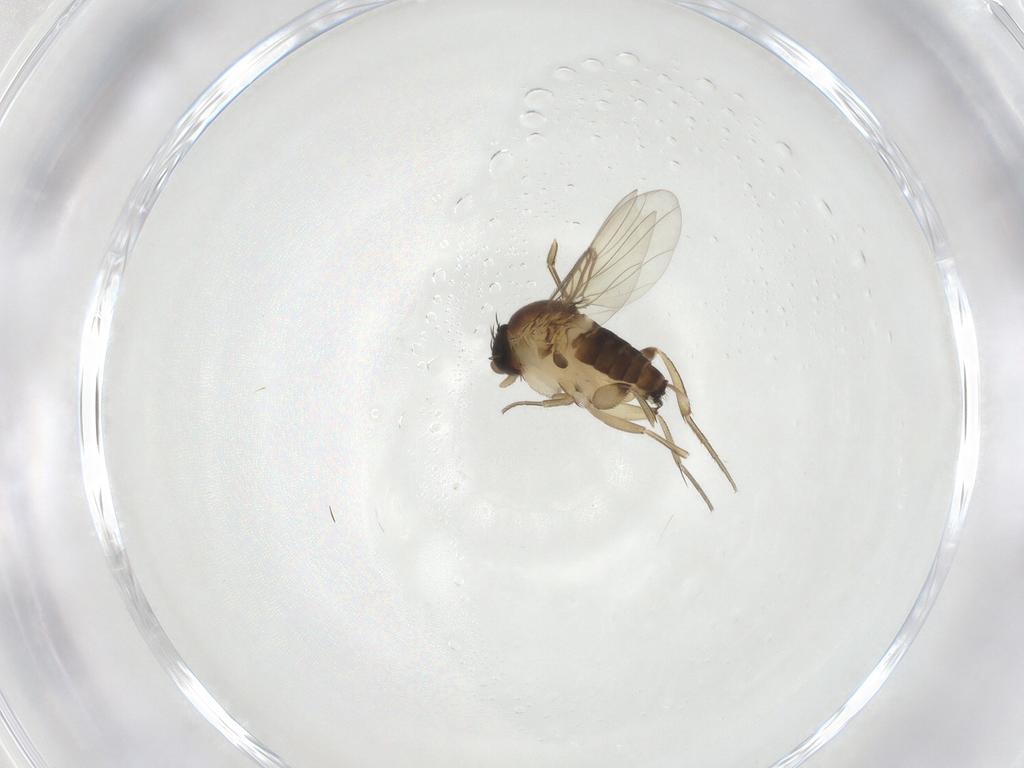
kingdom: Animalia
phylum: Arthropoda
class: Insecta
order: Diptera
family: Phoridae
